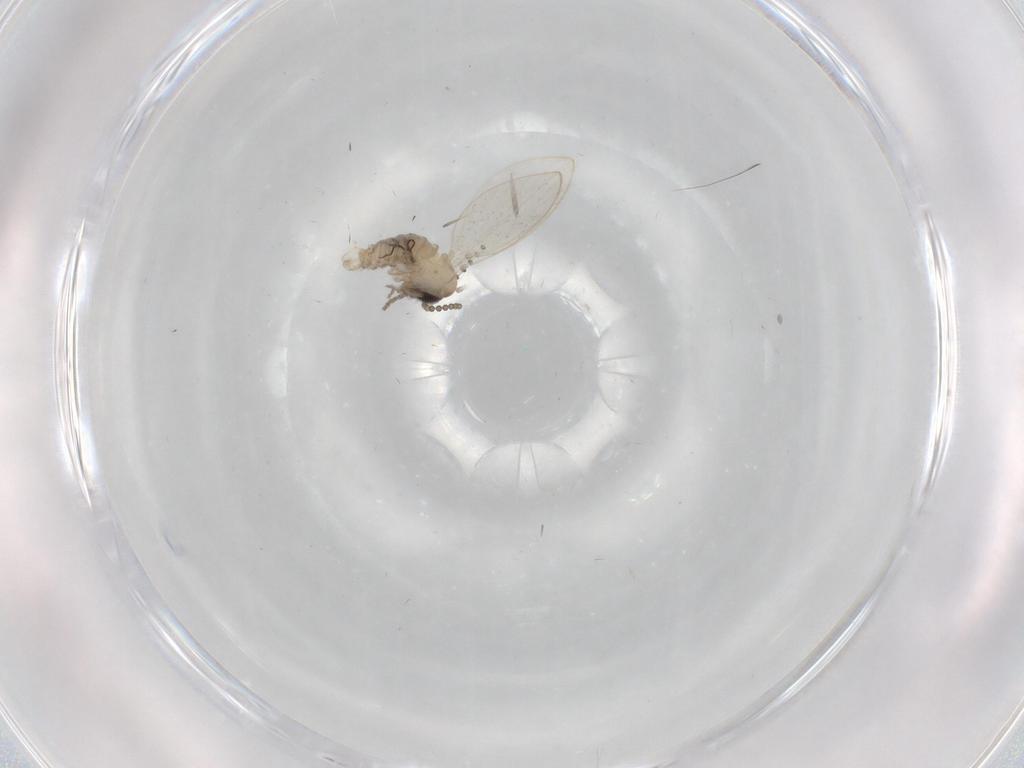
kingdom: Animalia
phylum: Arthropoda
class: Insecta
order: Diptera
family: Psychodidae
